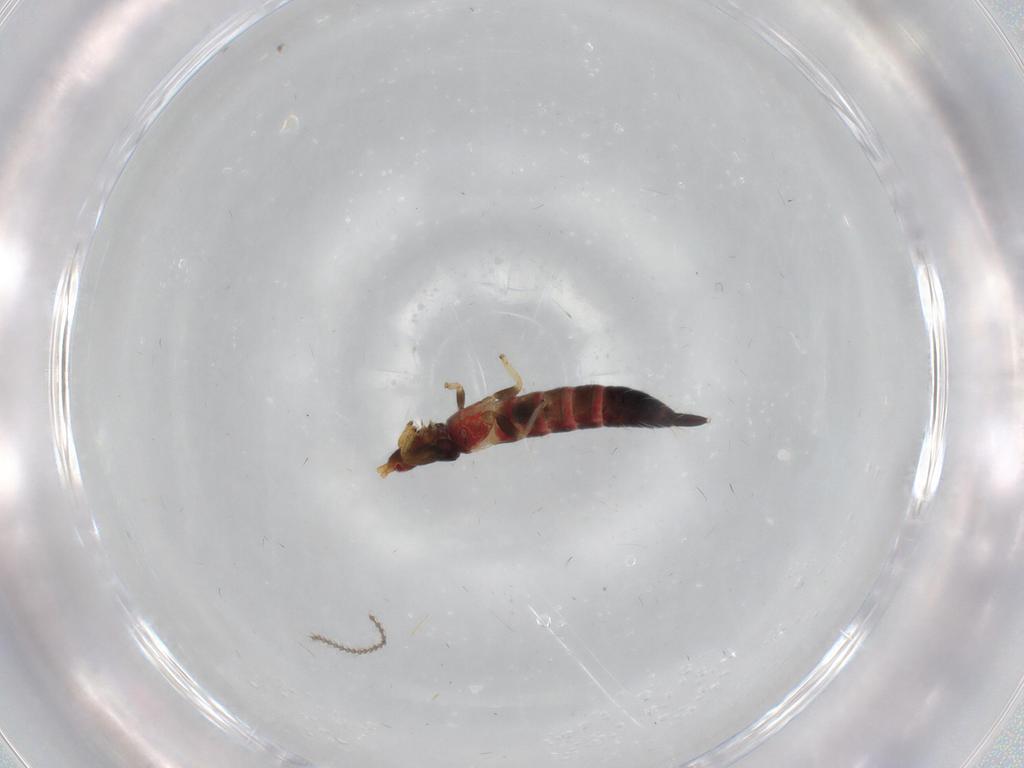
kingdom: Animalia
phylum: Arthropoda
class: Insecta
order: Thysanoptera
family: Phlaeothripidae
